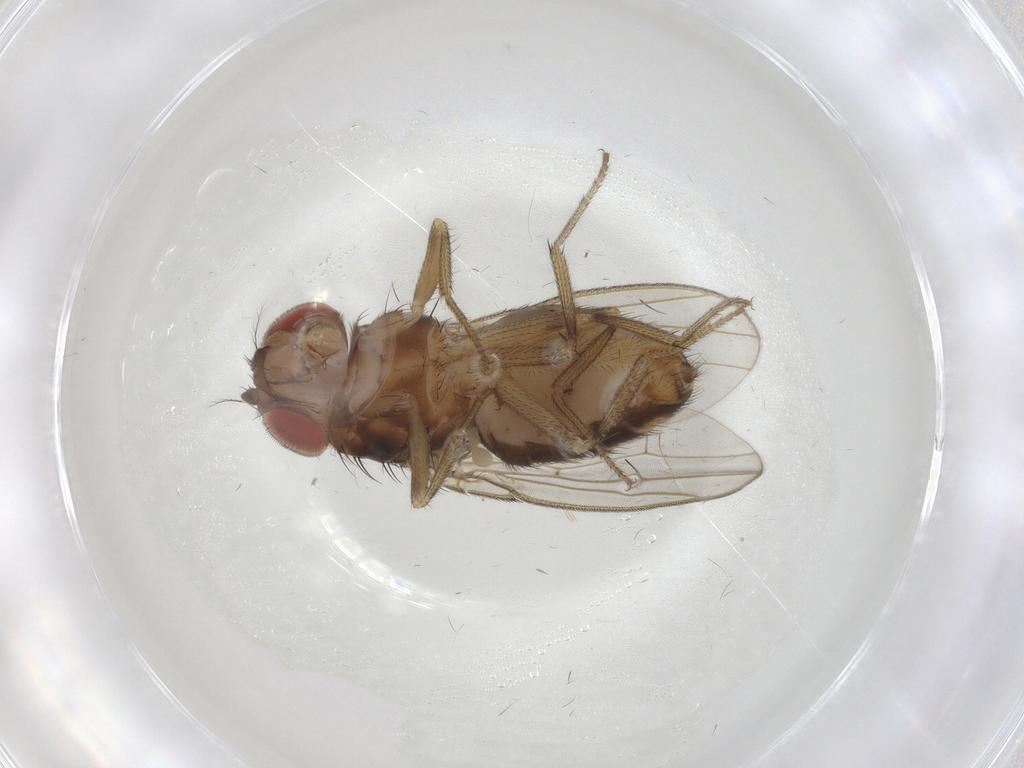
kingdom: Animalia
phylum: Arthropoda
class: Insecta
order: Diptera
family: Drosophilidae
